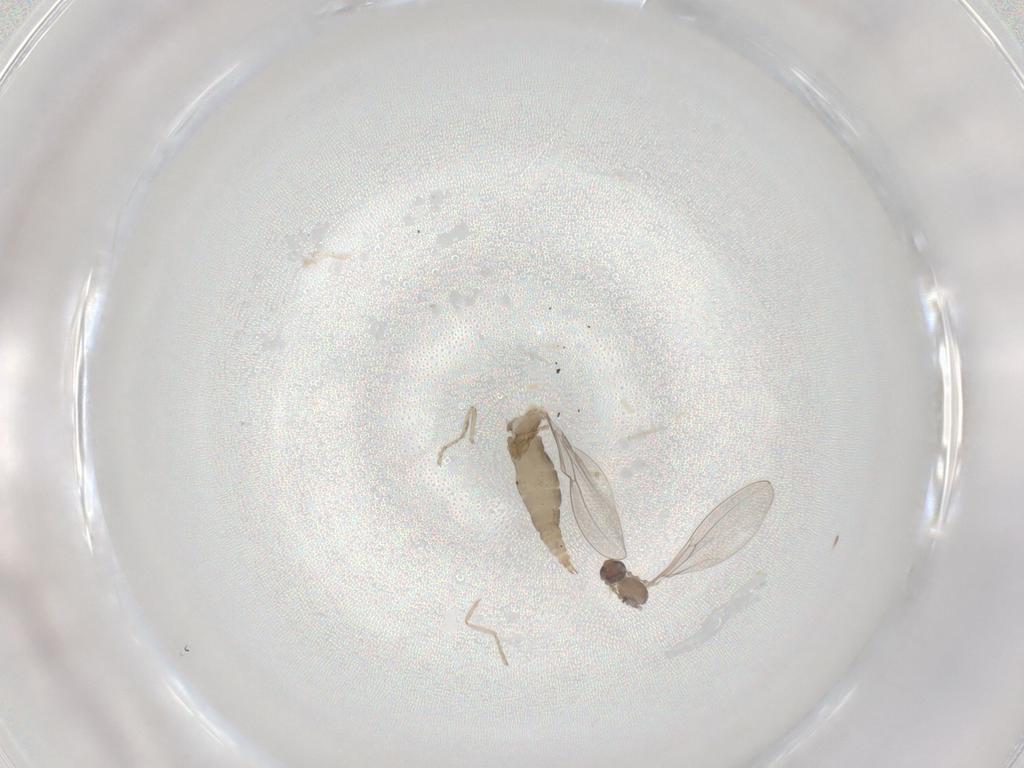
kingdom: Animalia
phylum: Arthropoda
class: Insecta
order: Diptera
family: Cecidomyiidae
